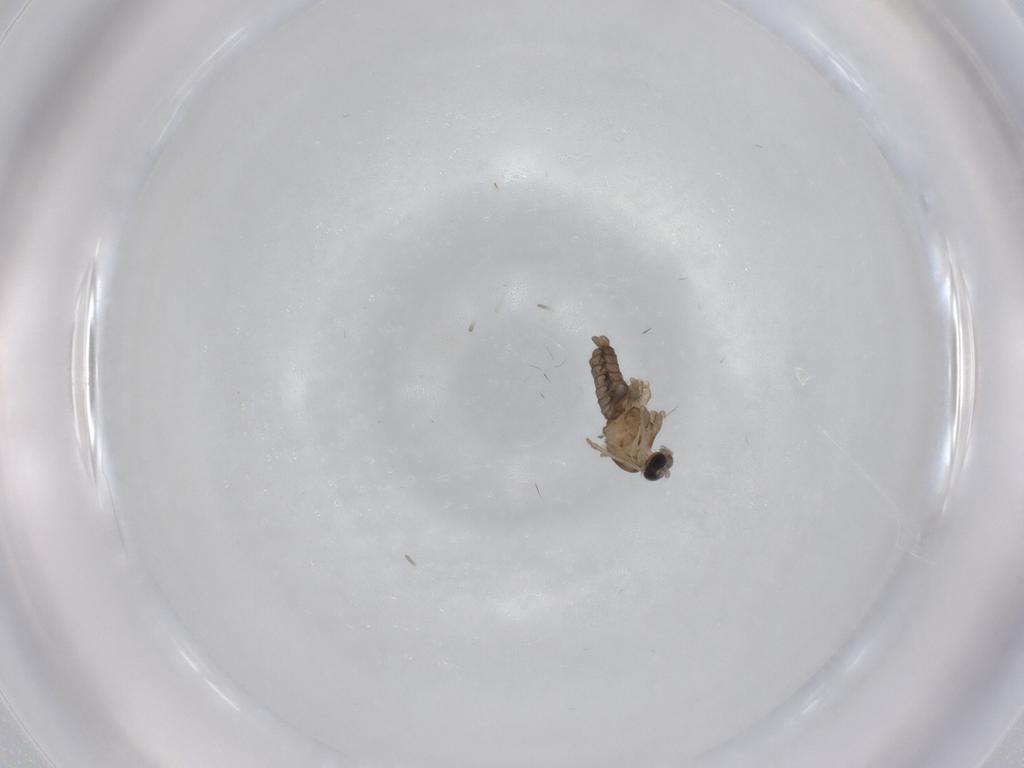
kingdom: Animalia
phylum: Arthropoda
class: Insecta
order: Diptera
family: Cecidomyiidae
